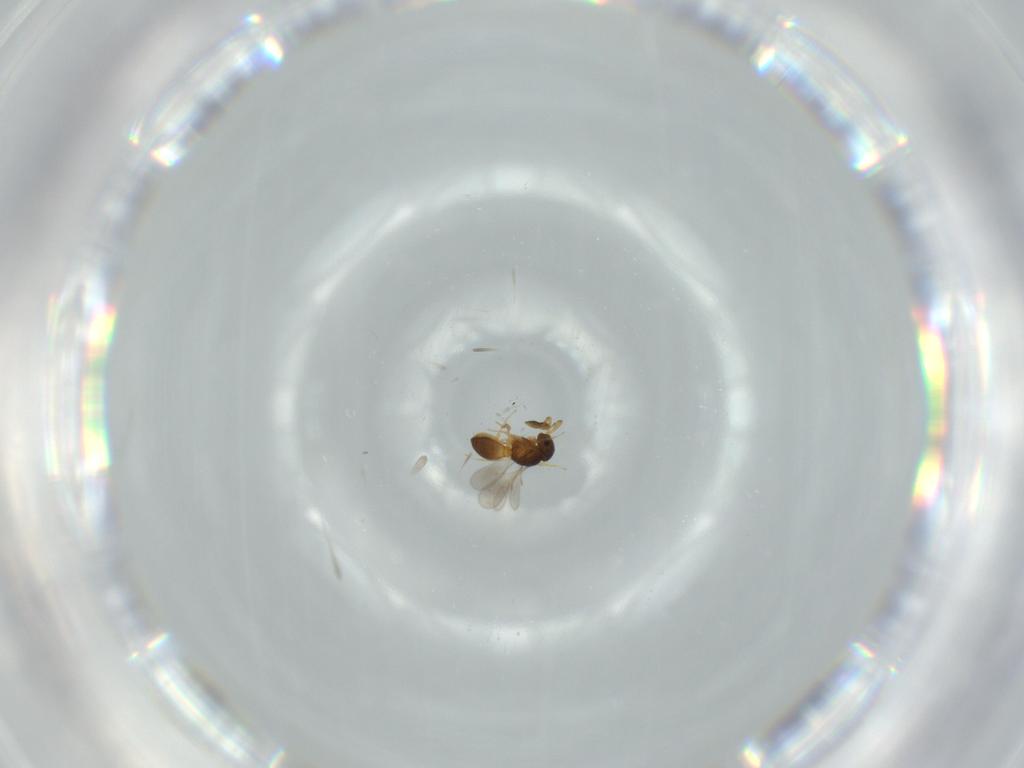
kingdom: Animalia
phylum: Arthropoda
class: Insecta
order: Hymenoptera
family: Scelionidae
